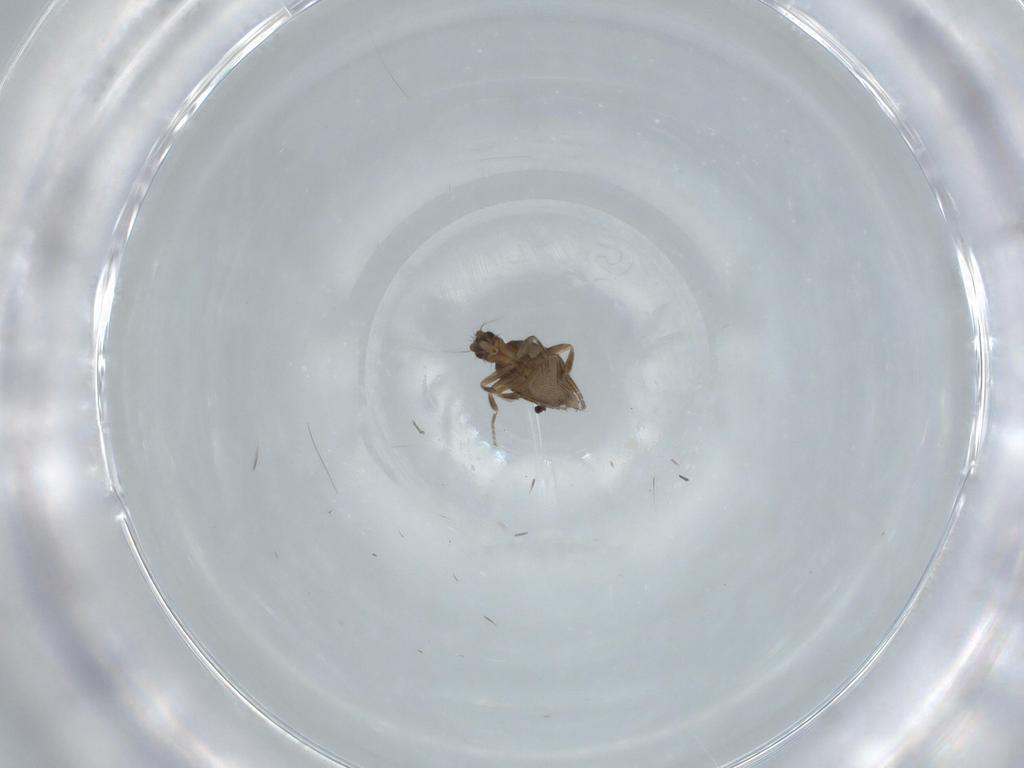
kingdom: Animalia
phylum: Arthropoda
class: Insecta
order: Diptera
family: Phoridae
